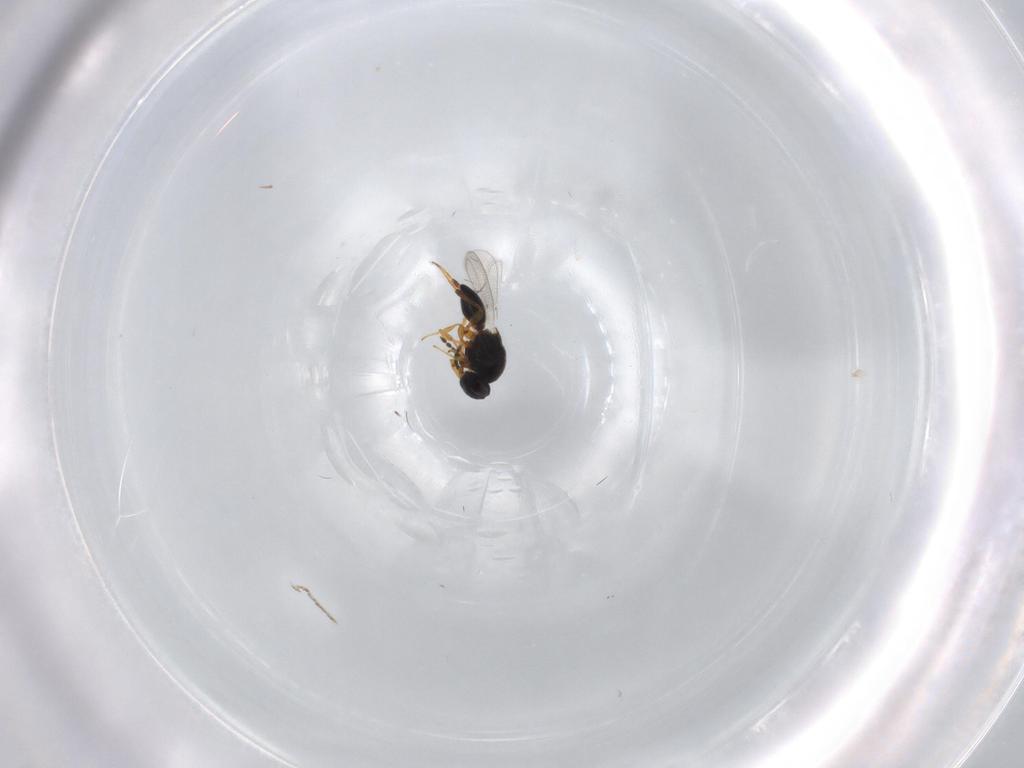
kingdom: Animalia
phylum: Arthropoda
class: Insecta
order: Hymenoptera
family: Platygastridae
